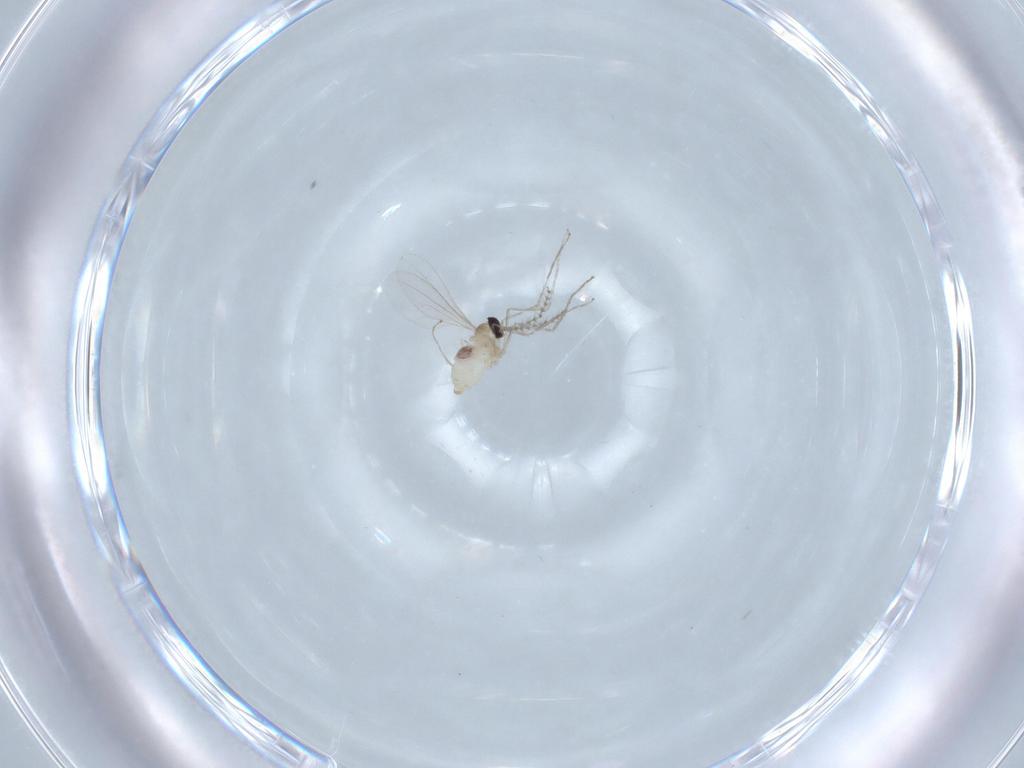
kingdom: Animalia
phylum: Arthropoda
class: Insecta
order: Diptera
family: Cecidomyiidae
